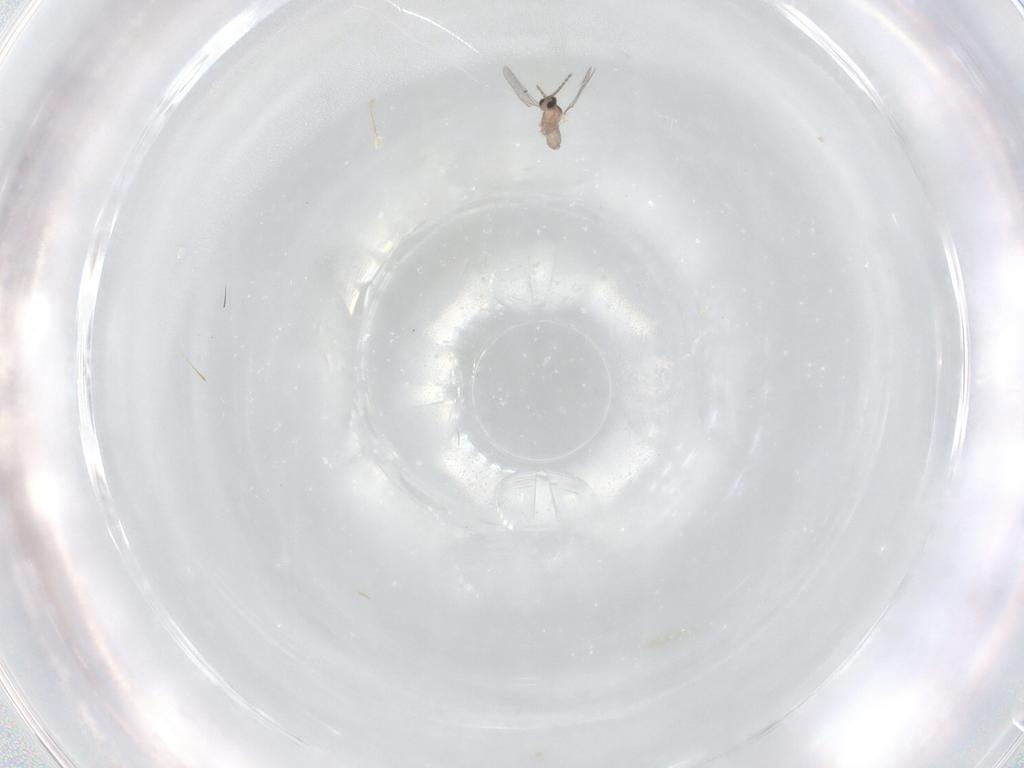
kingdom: Animalia
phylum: Arthropoda
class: Insecta
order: Diptera
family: Cecidomyiidae
